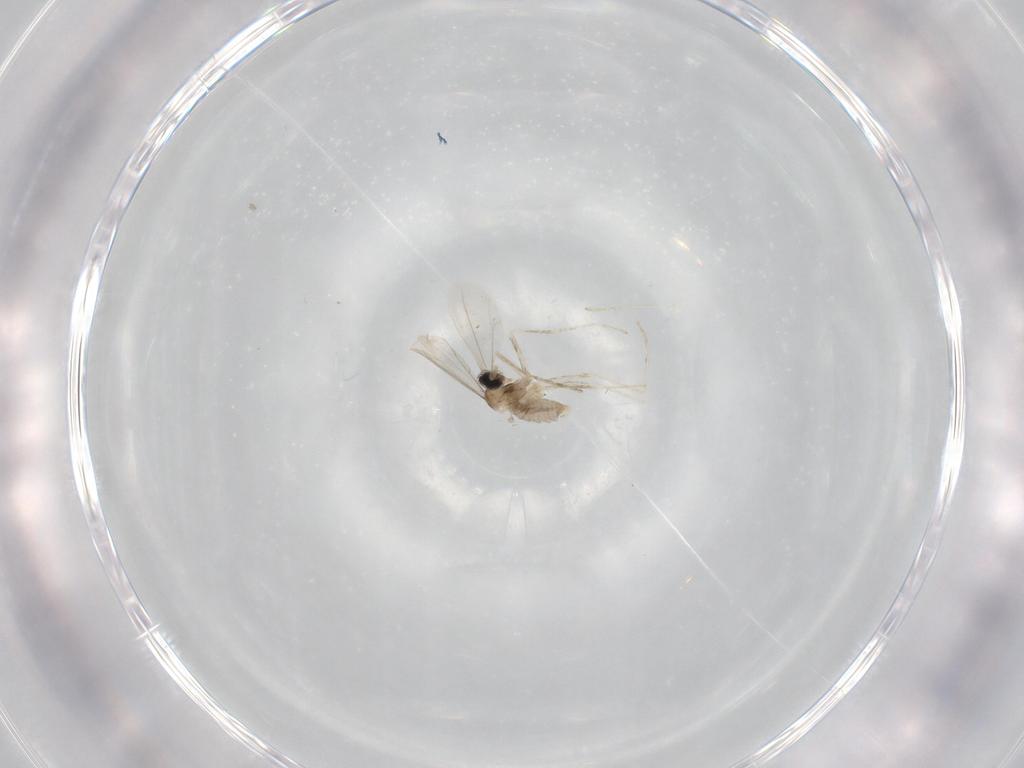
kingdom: Animalia
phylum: Arthropoda
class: Insecta
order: Diptera
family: Cecidomyiidae
